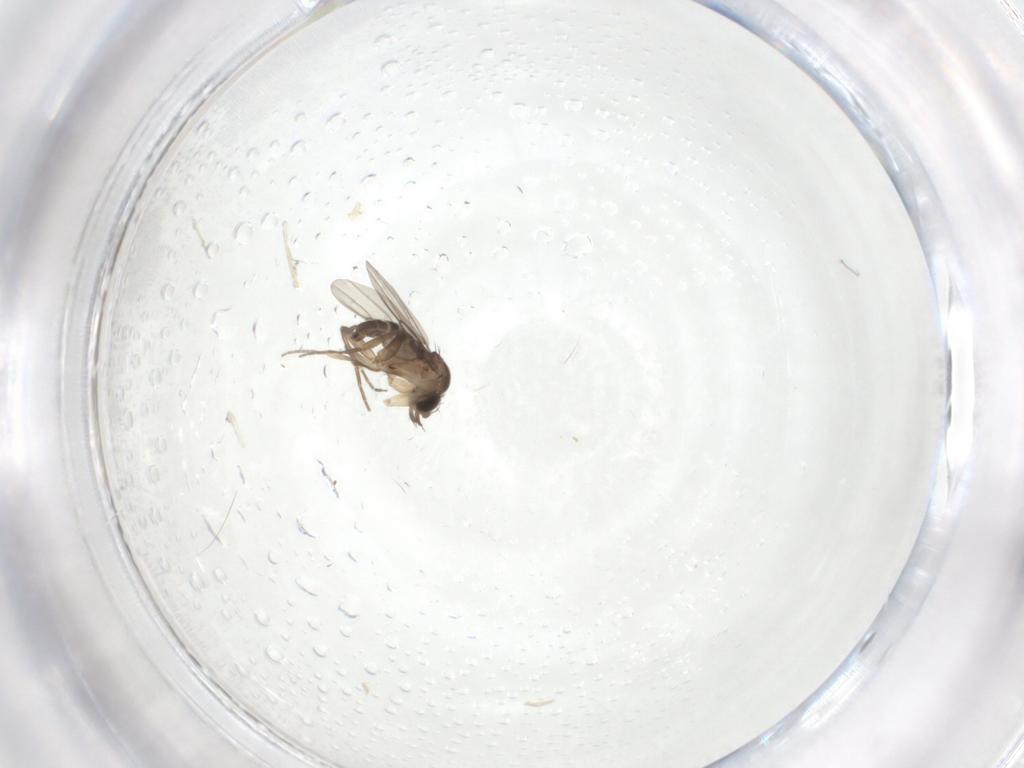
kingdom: Animalia
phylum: Arthropoda
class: Insecta
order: Diptera
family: Phoridae
